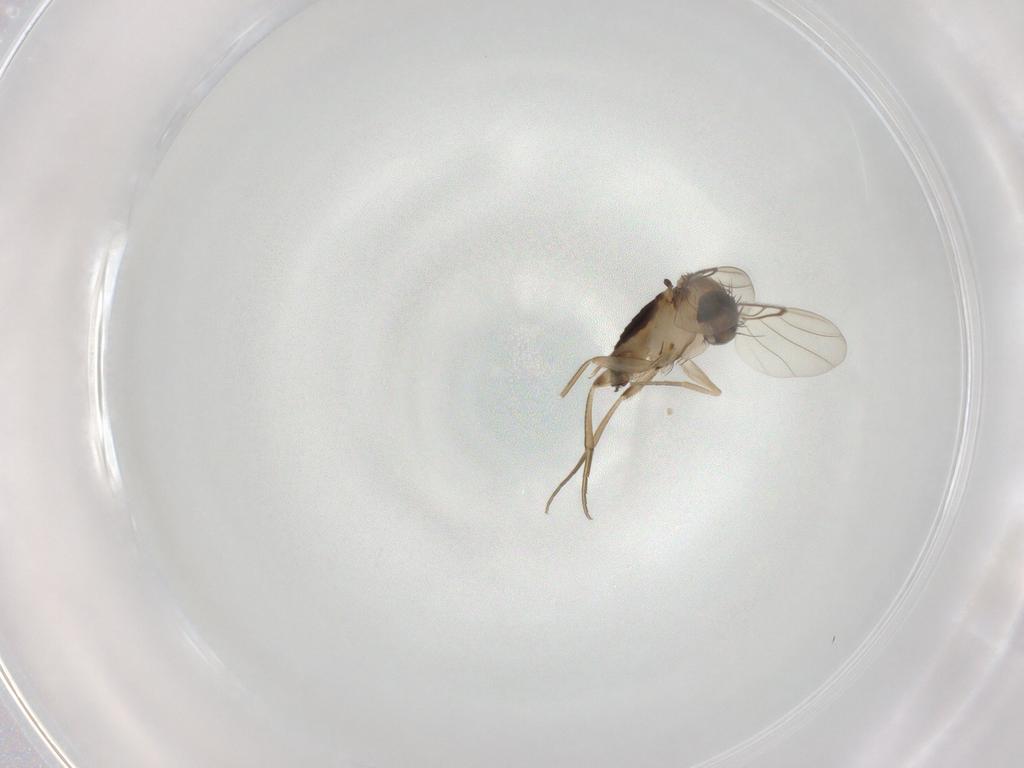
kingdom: Animalia
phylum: Arthropoda
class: Insecta
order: Diptera
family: Phoridae
